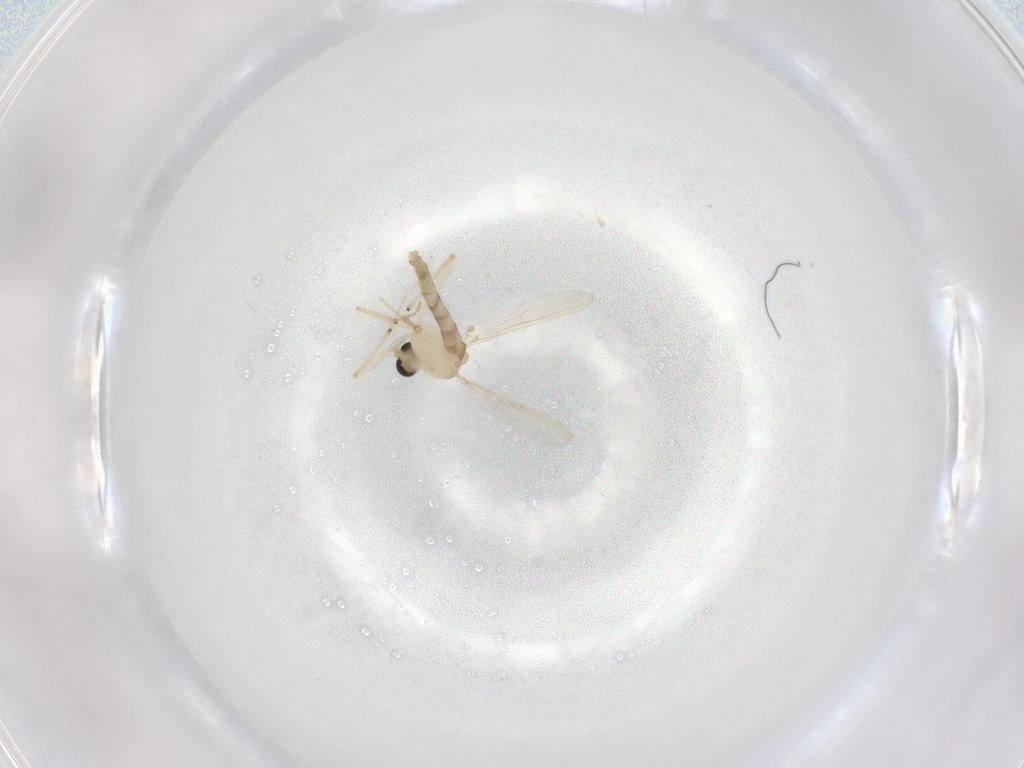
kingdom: Animalia
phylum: Arthropoda
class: Insecta
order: Diptera
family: Chironomidae
